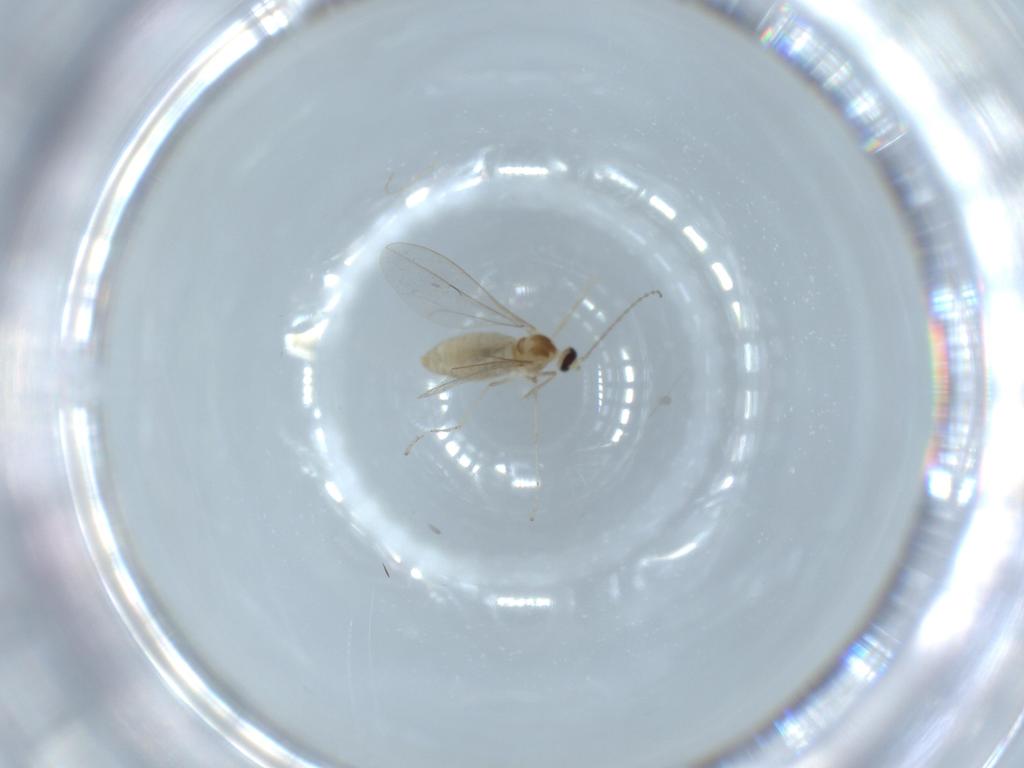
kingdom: Animalia
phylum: Arthropoda
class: Insecta
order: Diptera
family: Cecidomyiidae
